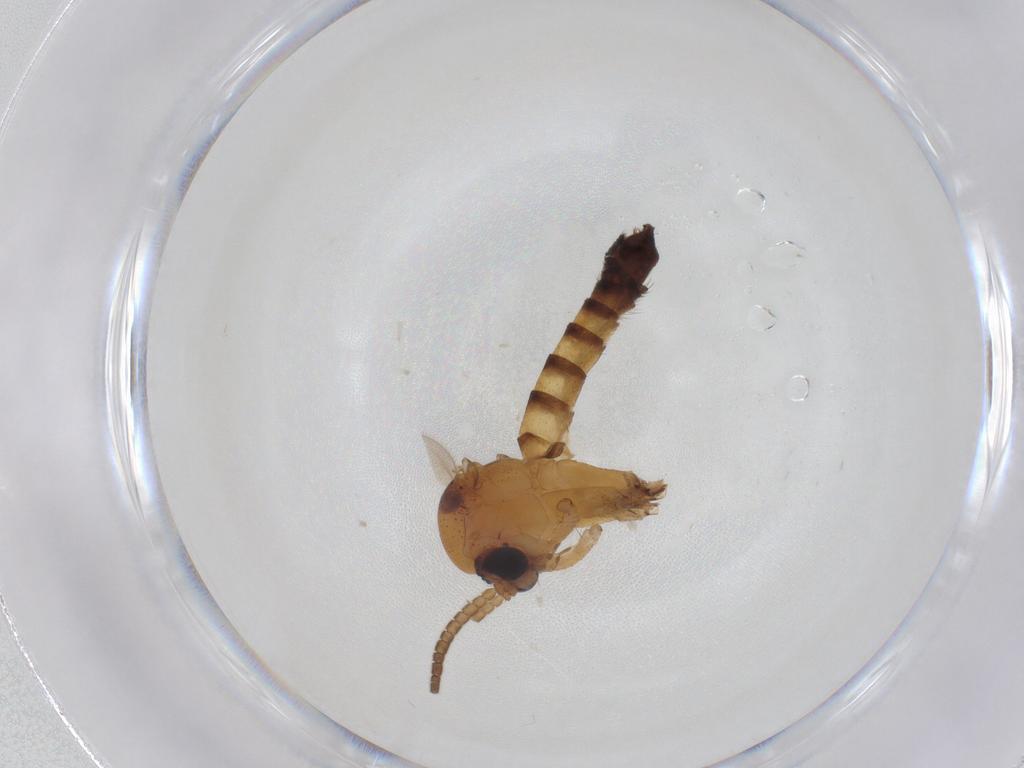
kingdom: Animalia
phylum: Arthropoda
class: Insecta
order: Diptera
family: Mycetophilidae
